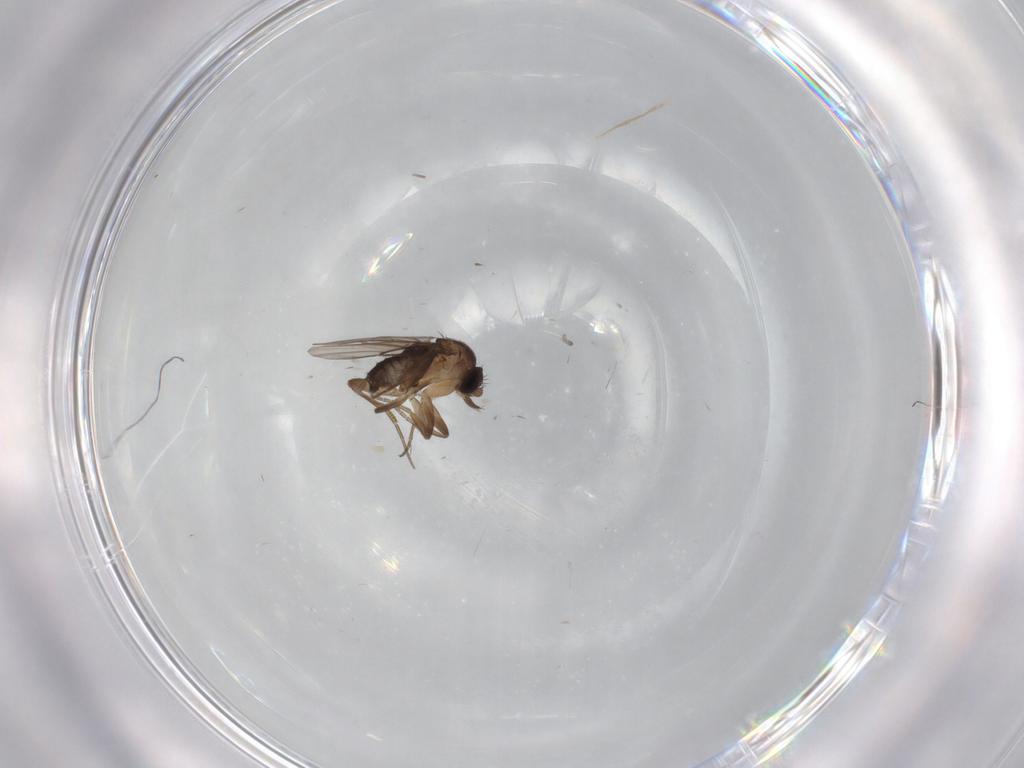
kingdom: Animalia
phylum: Arthropoda
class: Insecta
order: Diptera
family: Phoridae
